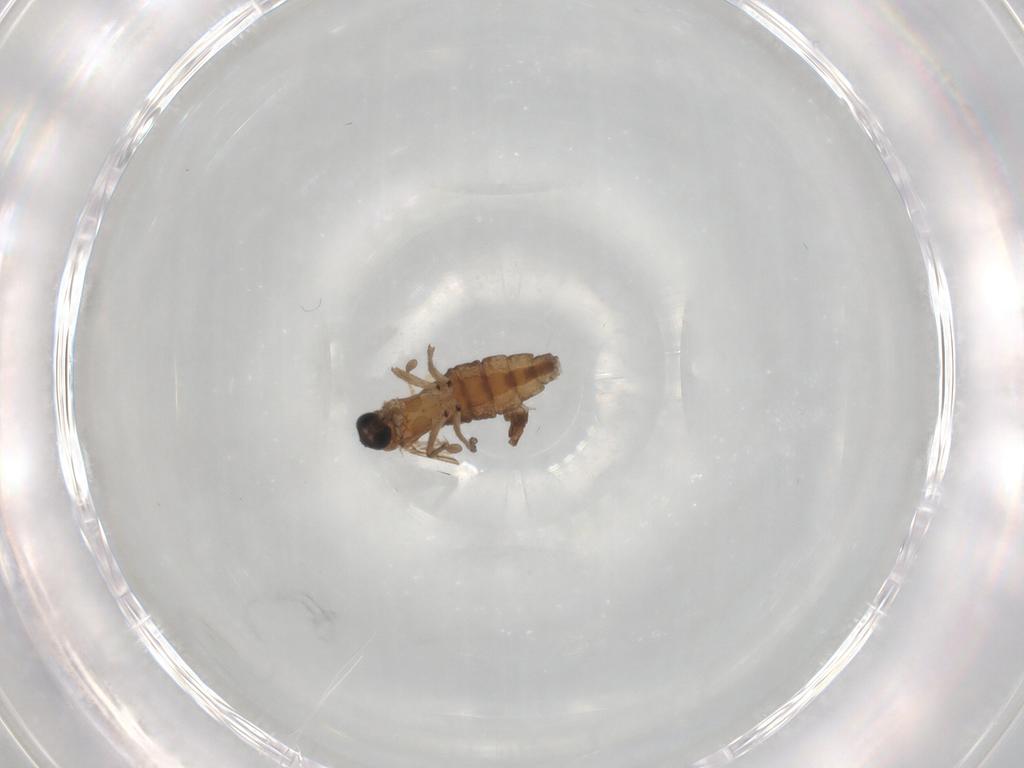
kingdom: Animalia
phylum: Arthropoda
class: Insecta
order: Diptera
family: Sciaridae
